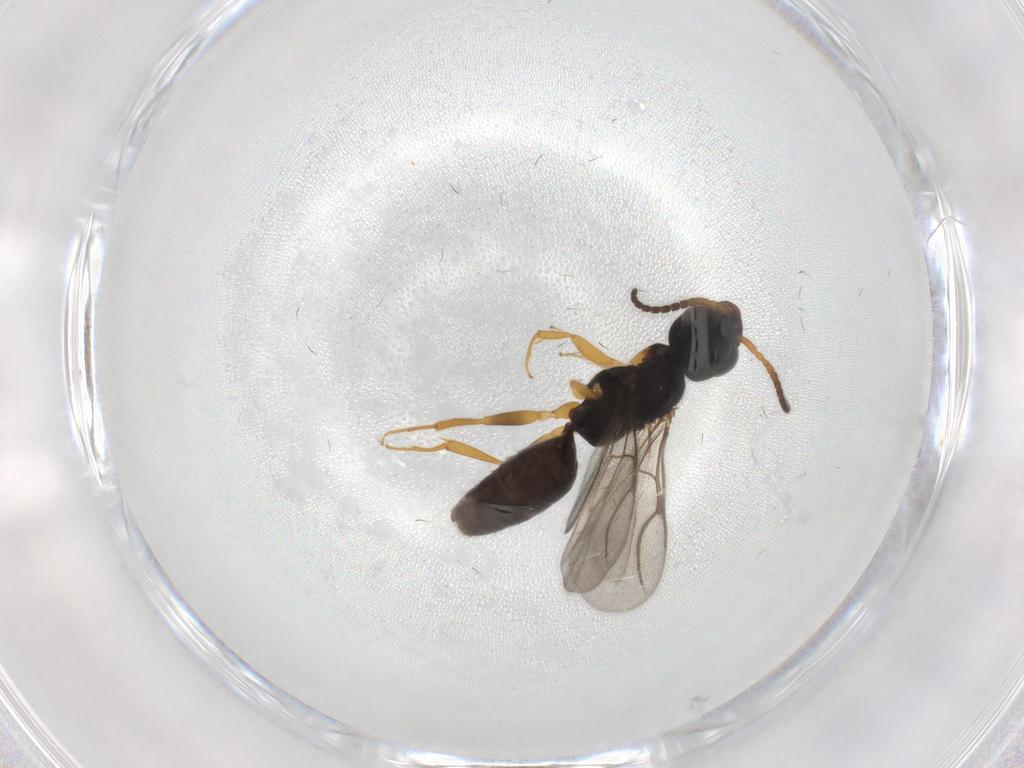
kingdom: Animalia
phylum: Arthropoda
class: Insecta
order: Hymenoptera
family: Bethylidae
